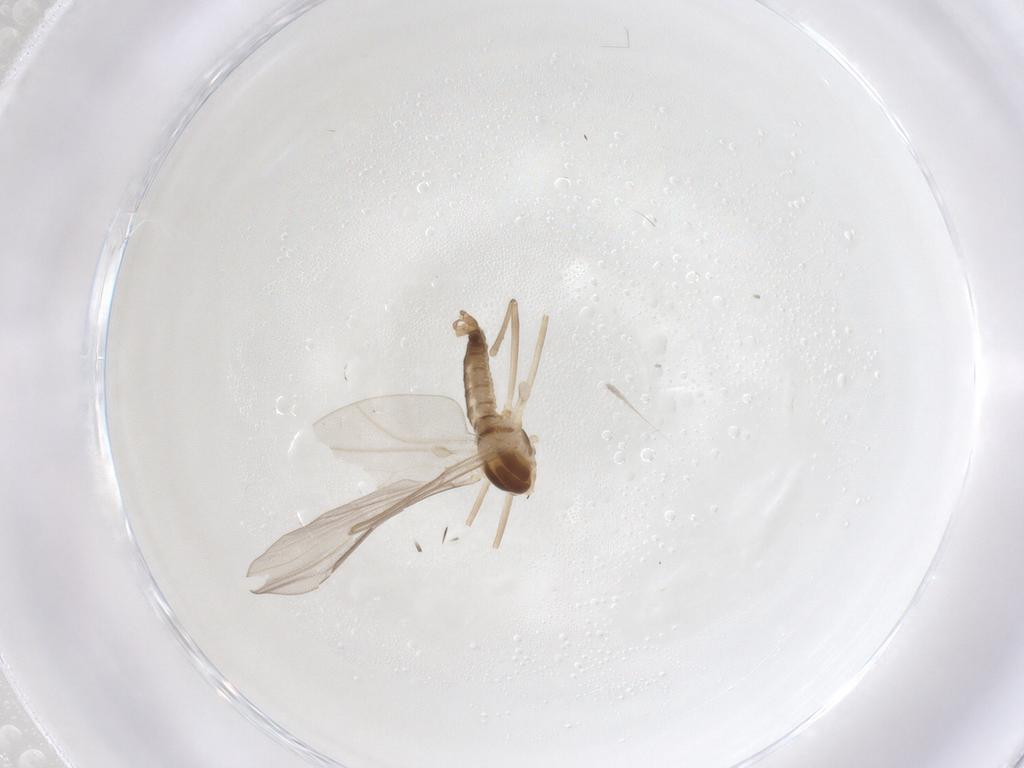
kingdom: Animalia
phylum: Arthropoda
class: Insecta
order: Diptera
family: Cecidomyiidae
